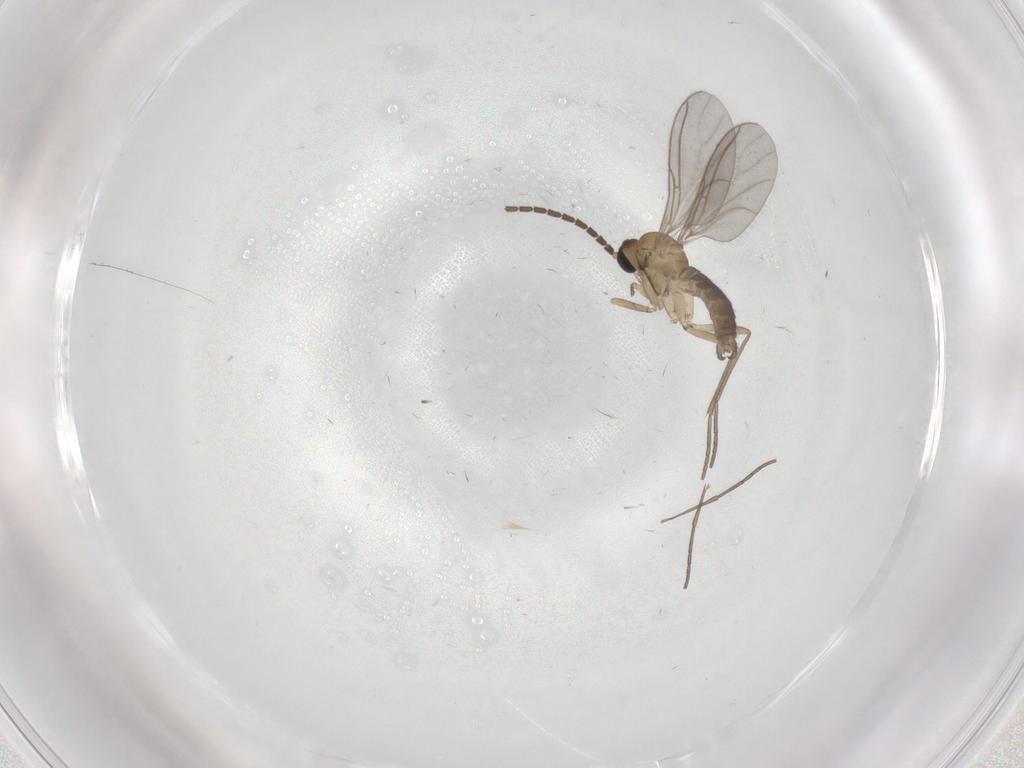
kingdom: Animalia
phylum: Arthropoda
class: Insecta
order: Diptera
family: Sciaridae
